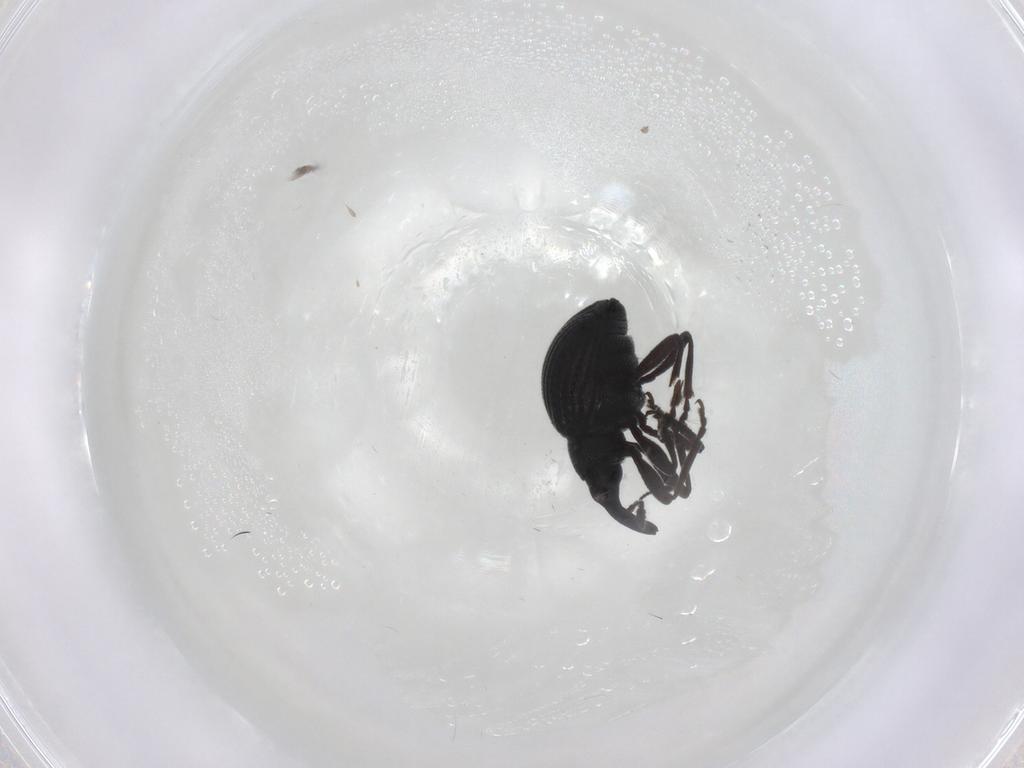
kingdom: Animalia
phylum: Arthropoda
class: Insecta
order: Coleoptera
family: Brentidae
